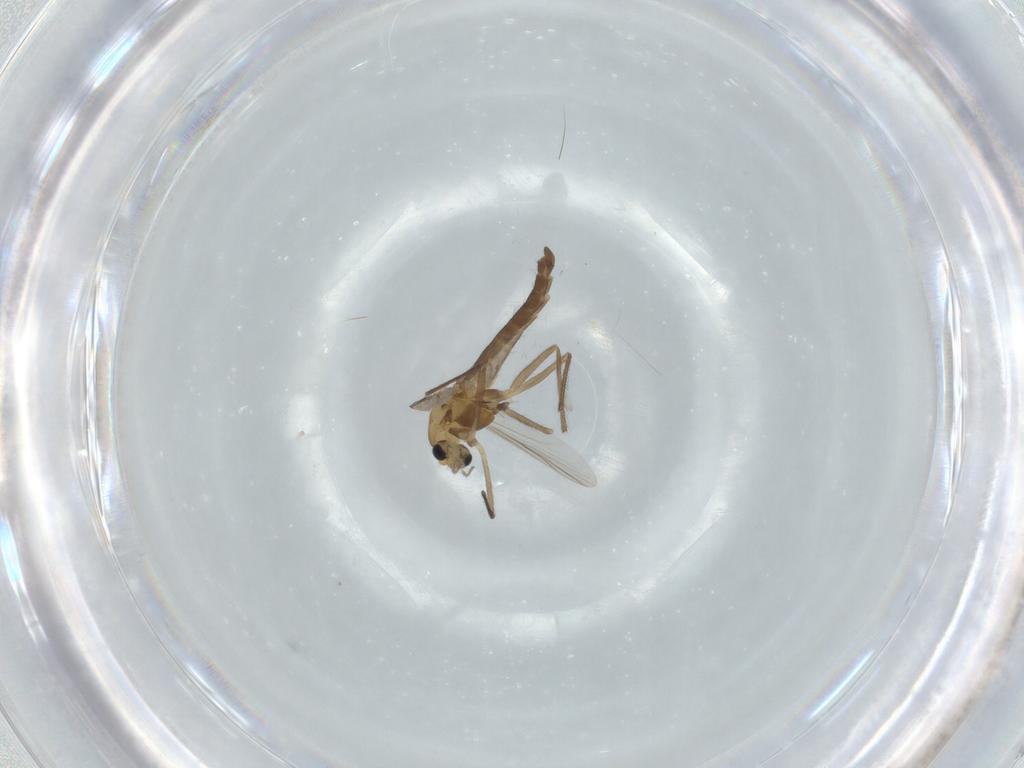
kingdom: Animalia
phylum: Arthropoda
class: Insecta
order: Diptera
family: Chironomidae
